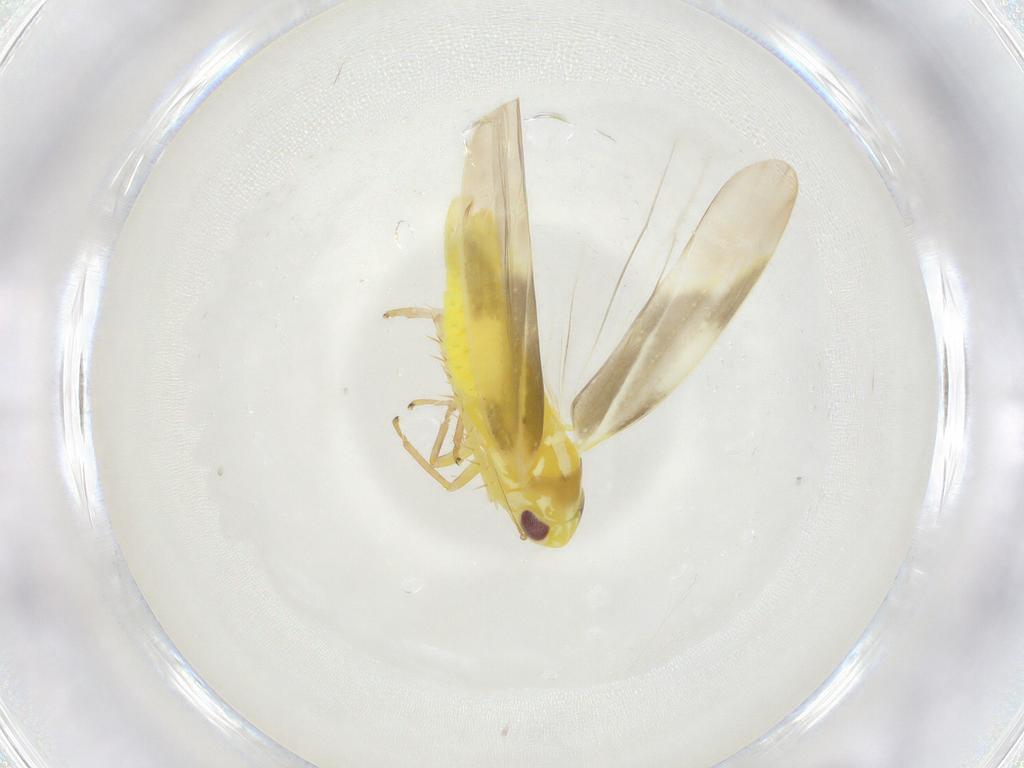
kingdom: Animalia
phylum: Arthropoda
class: Insecta
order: Hemiptera
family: Cicadellidae
